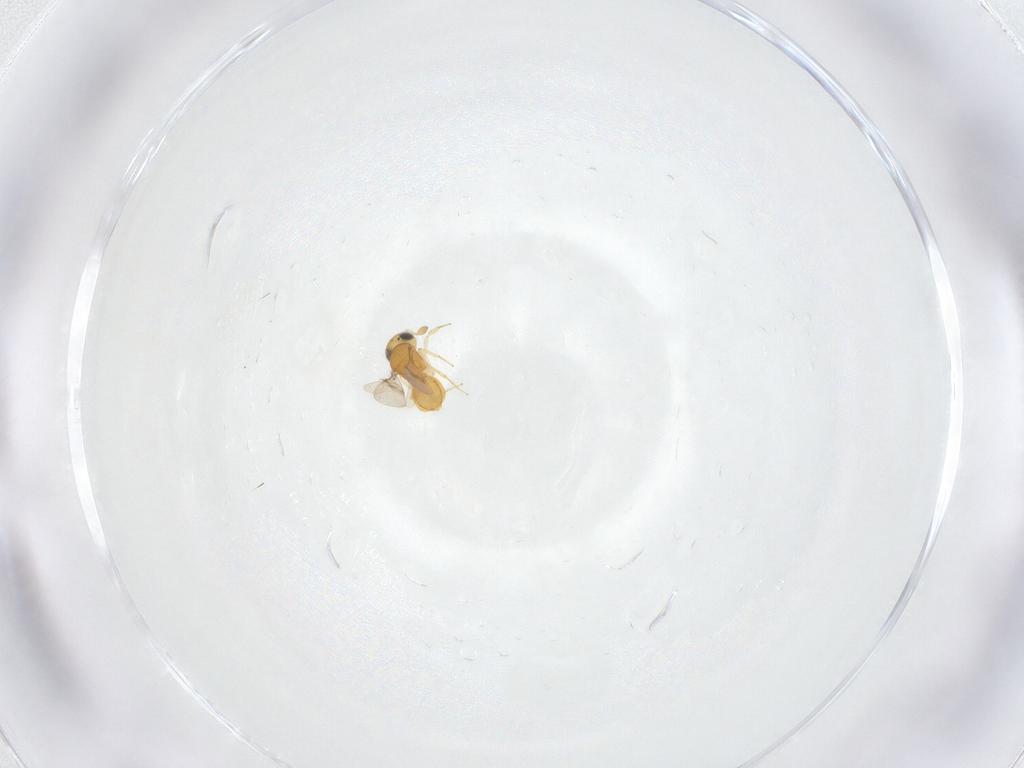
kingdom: Animalia
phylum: Arthropoda
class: Insecta
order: Hymenoptera
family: Scelionidae
